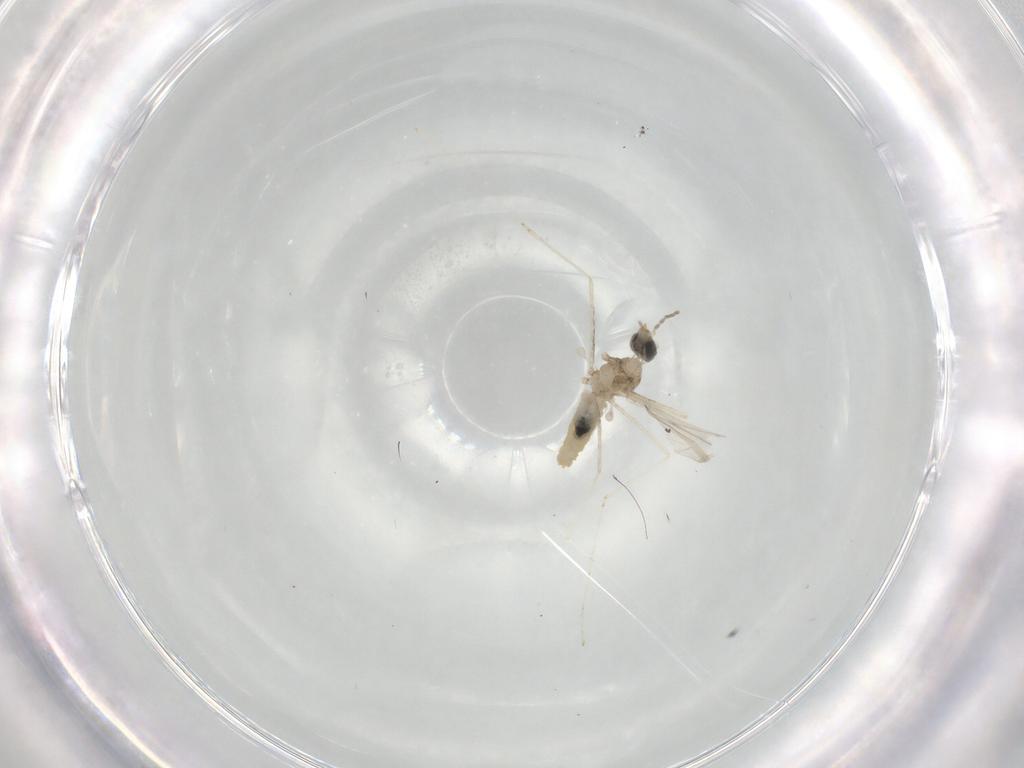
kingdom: Animalia
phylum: Arthropoda
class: Insecta
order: Diptera
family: Cecidomyiidae
